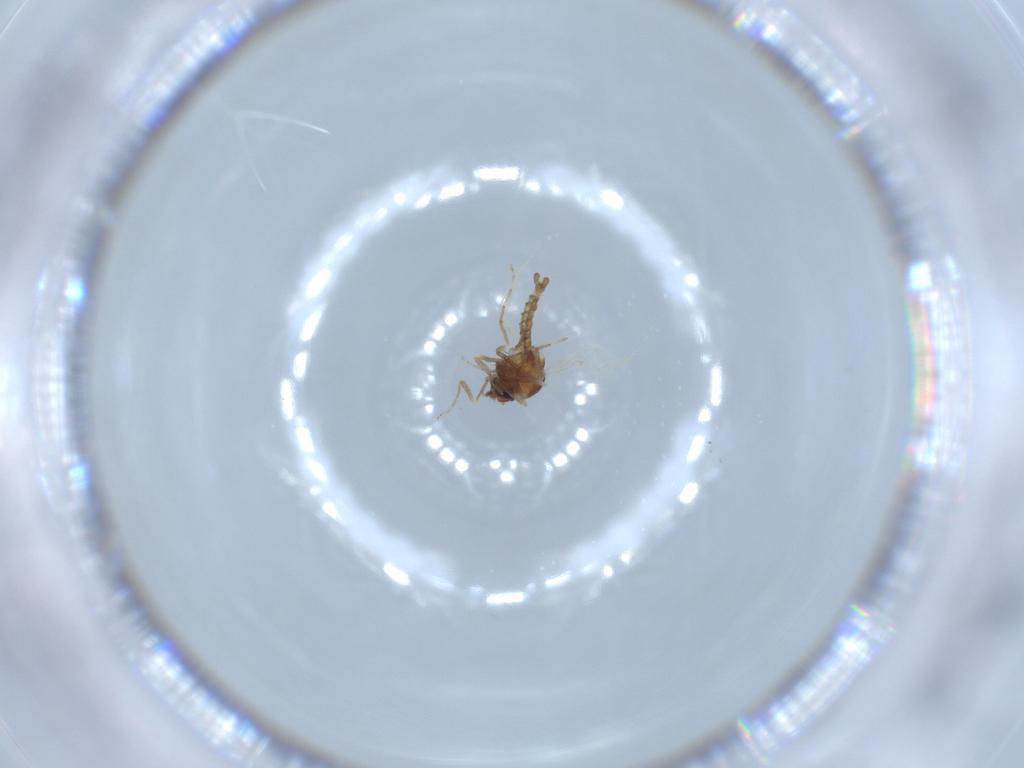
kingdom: Animalia
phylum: Arthropoda
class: Insecta
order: Diptera
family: Ceratopogonidae
